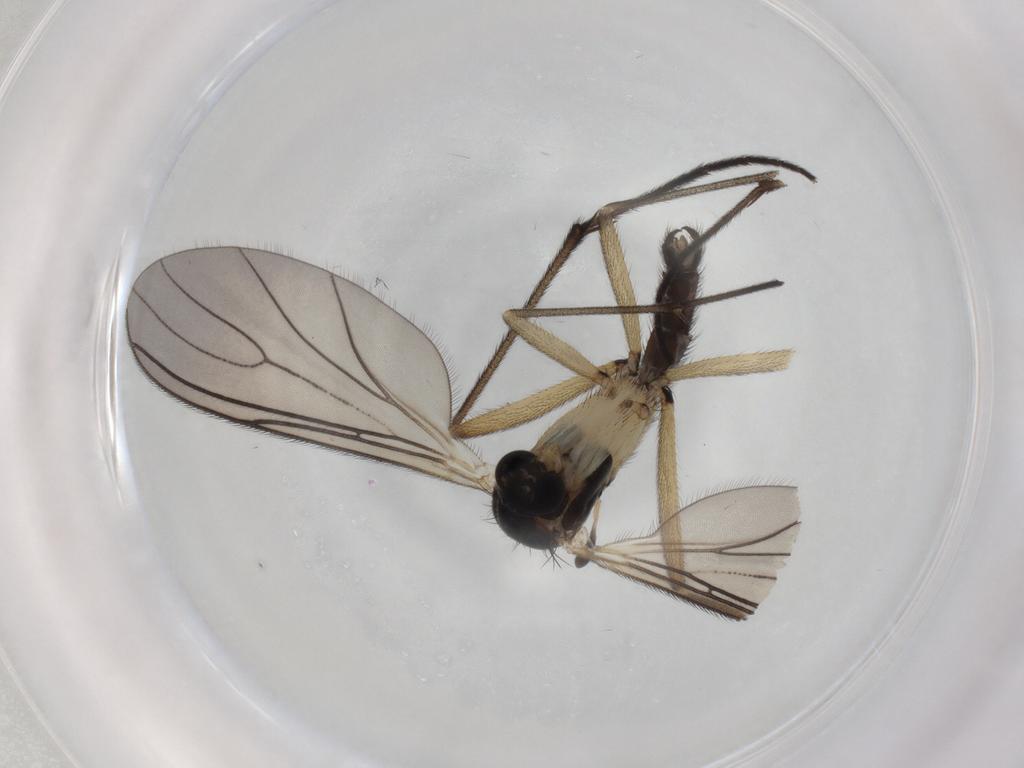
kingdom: Animalia
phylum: Arthropoda
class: Insecta
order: Diptera
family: Sciaridae
